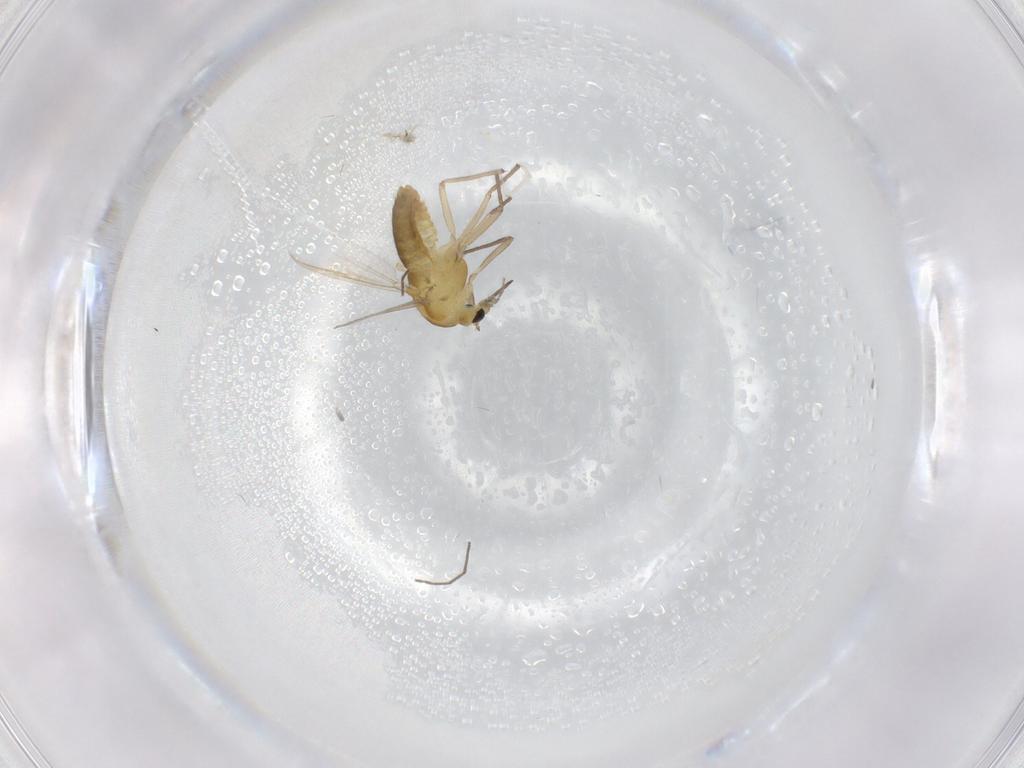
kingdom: Animalia
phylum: Arthropoda
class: Insecta
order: Diptera
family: Chironomidae
